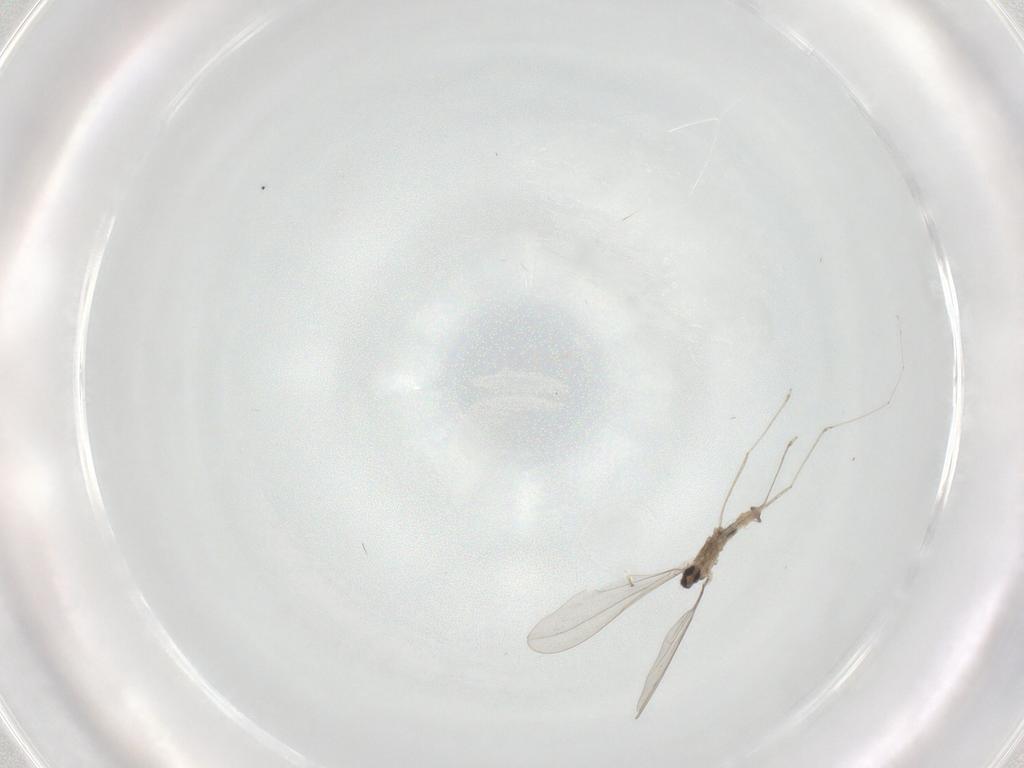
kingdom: Animalia
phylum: Arthropoda
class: Insecta
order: Diptera
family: Cecidomyiidae
